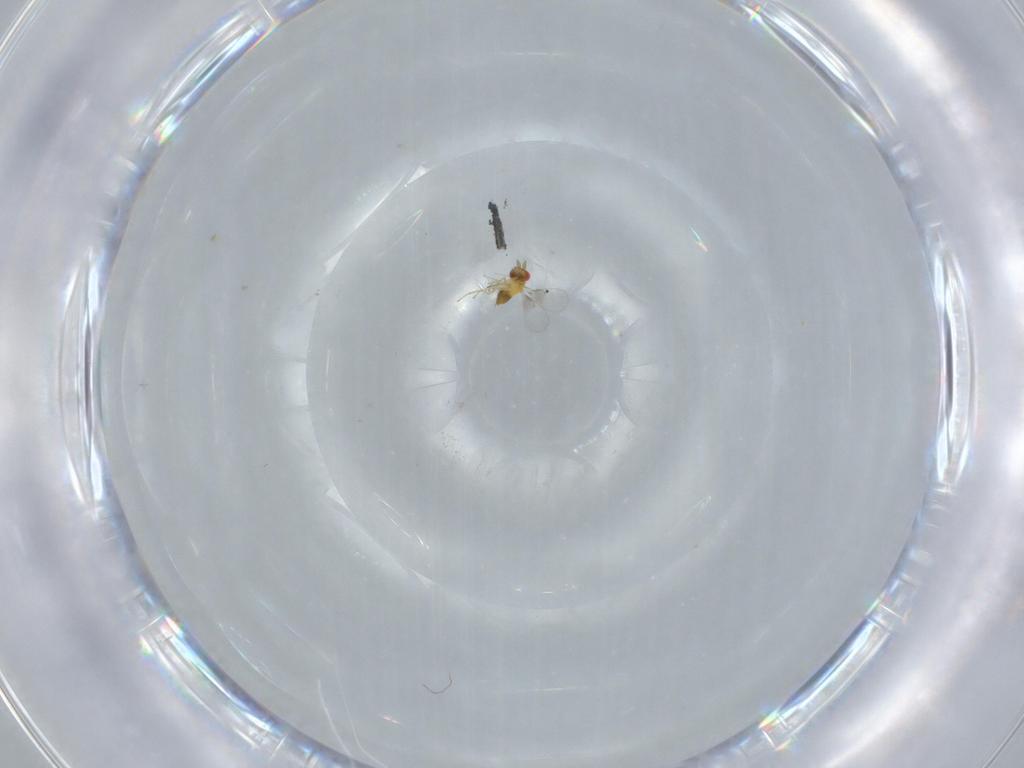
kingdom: Animalia
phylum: Arthropoda
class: Insecta
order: Hymenoptera
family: Trichogrammatidae
